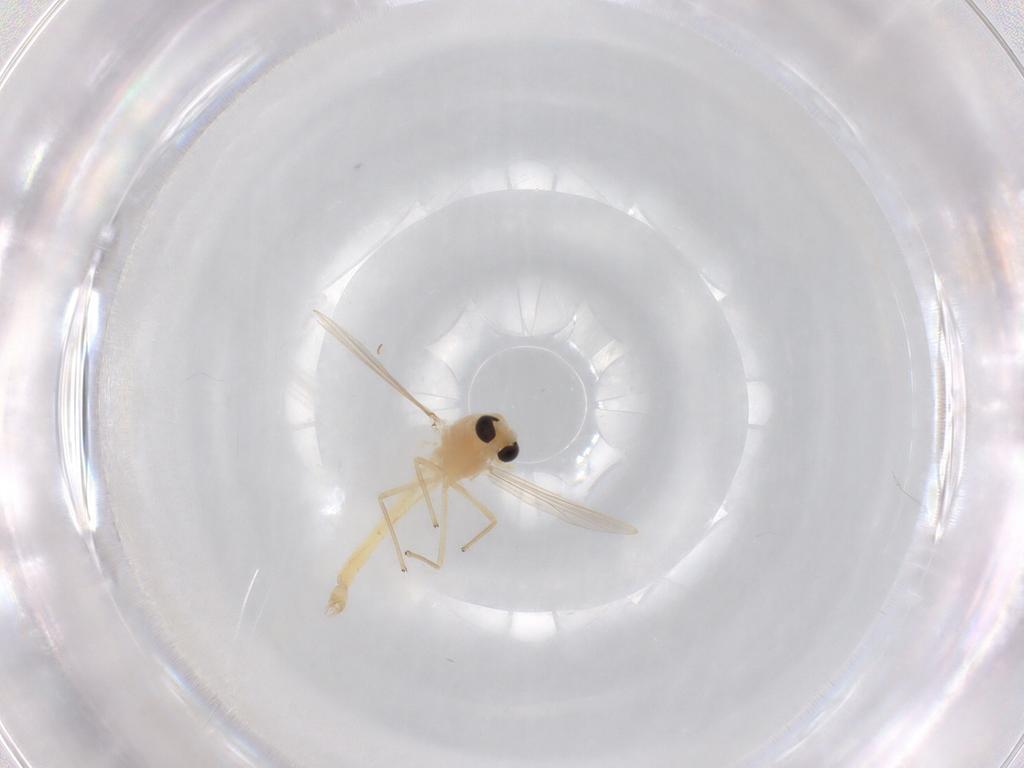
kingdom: Animalia
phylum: Arthropoda
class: Insecta
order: Diptera
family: Chironomidae
